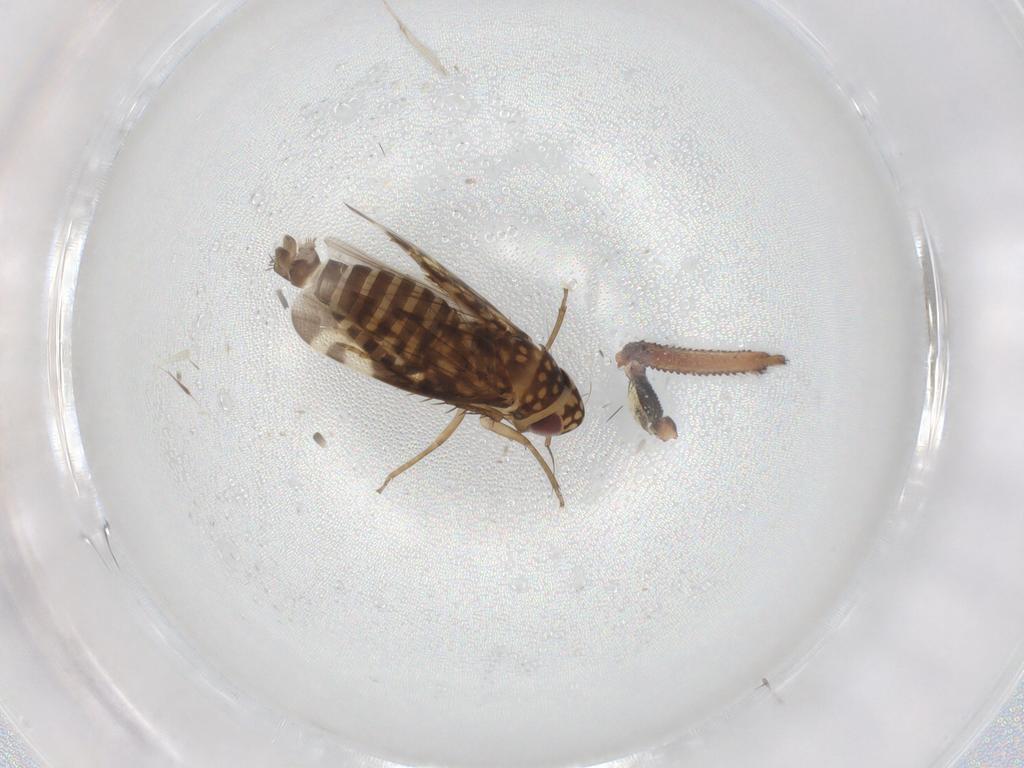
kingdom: Animalia
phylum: Arthropoda
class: Insecta
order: Hemiptera
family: Cicadellidae
